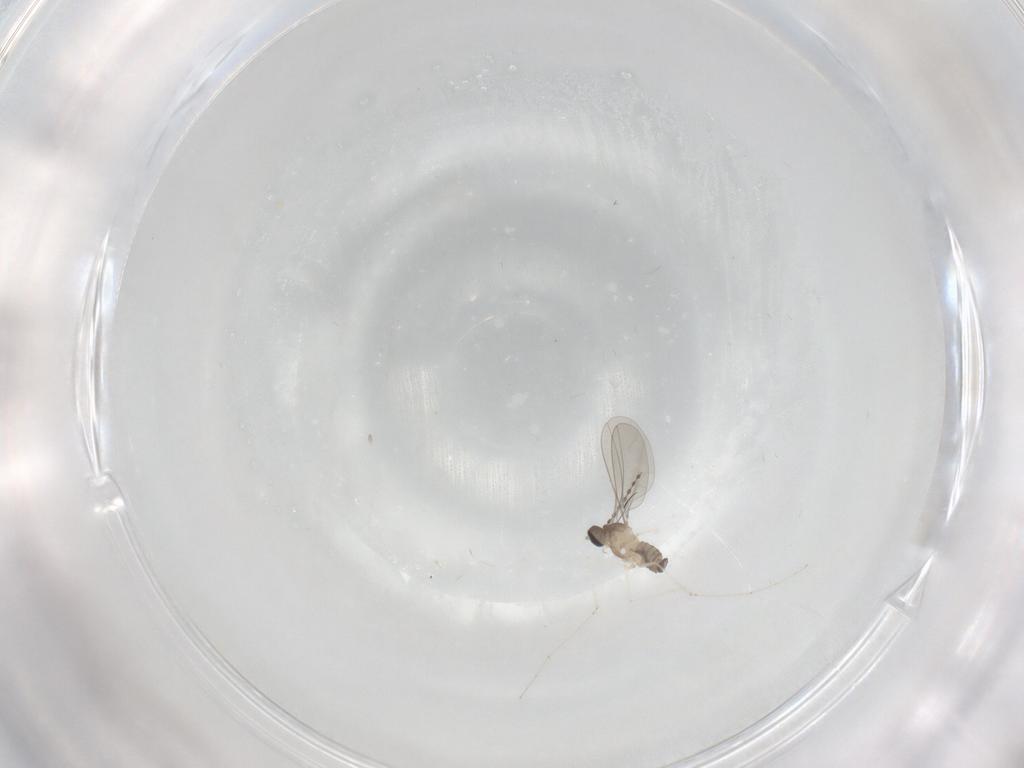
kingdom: Animalia
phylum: Arthropoda
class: Insecta
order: Diptera
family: Cecidomyiidae
